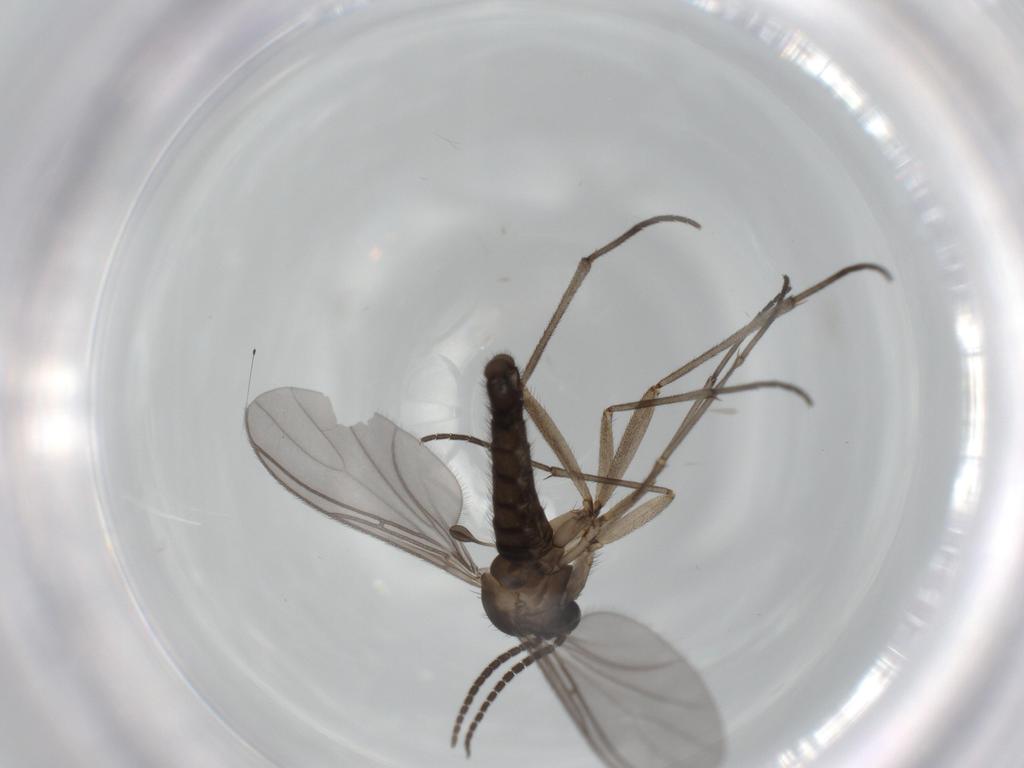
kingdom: Animalia
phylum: Arthropoda
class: Insecta
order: Diptera
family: Sciaridae
